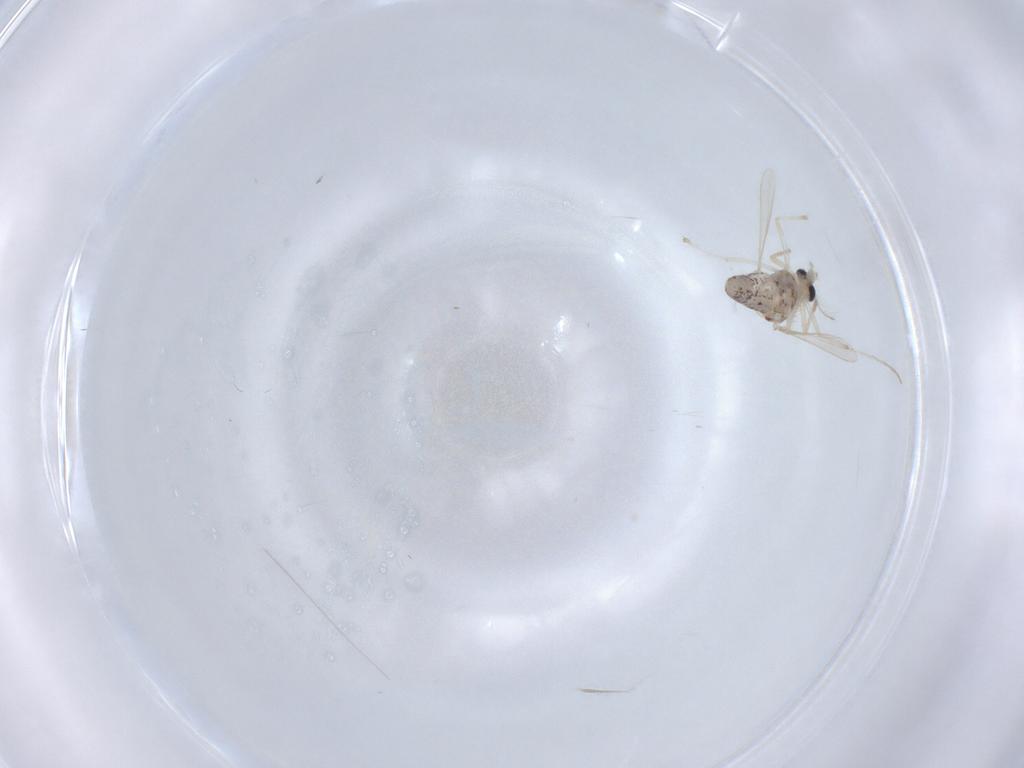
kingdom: Animalia
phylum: Arthropoda
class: Insecta
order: Diptera
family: Chironomidae
